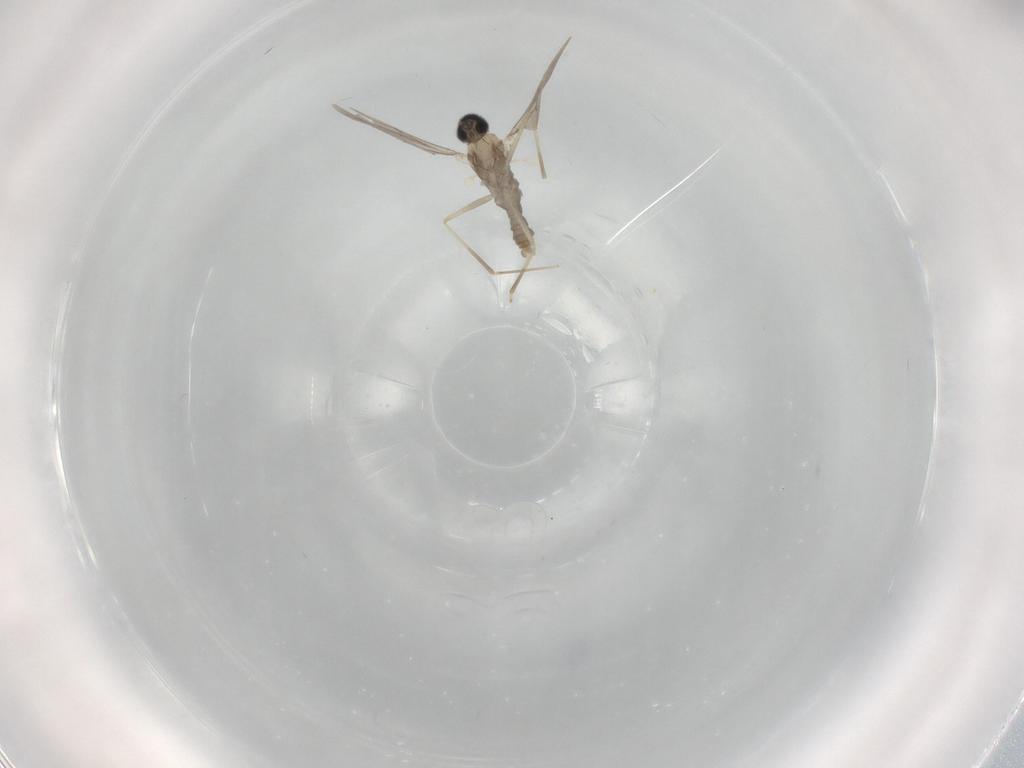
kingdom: Animalia
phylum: Arthropoda
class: Insecta
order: Diptera
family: Cecidomyiidae
